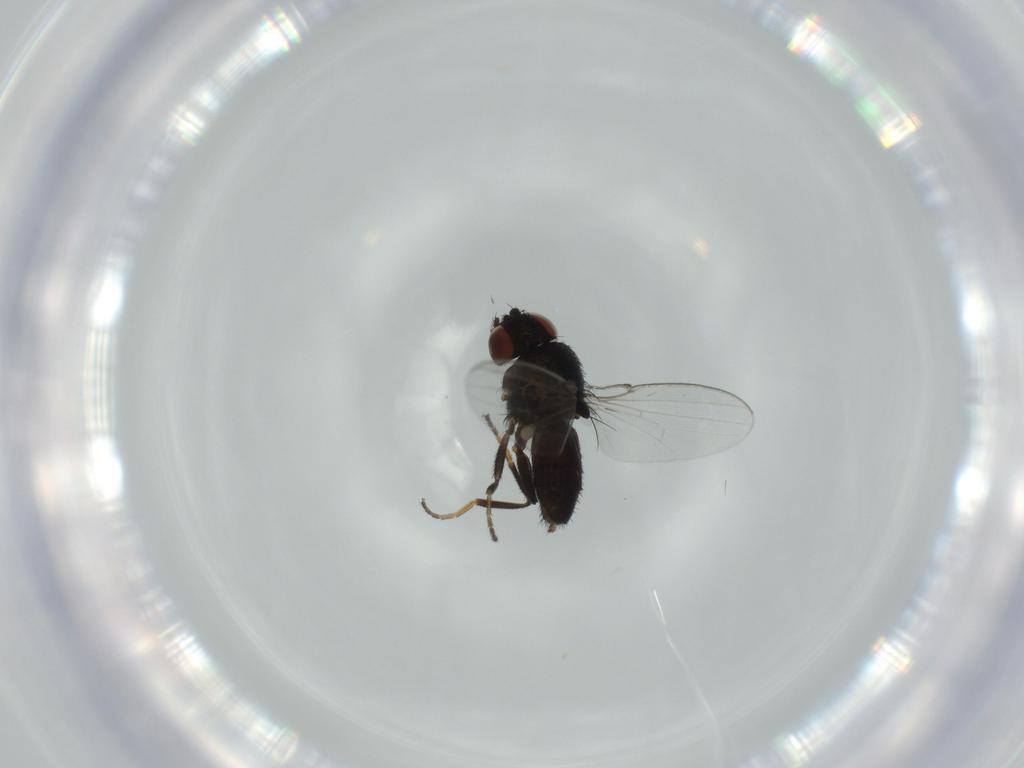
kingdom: Animalia
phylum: Arthropoda
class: Insecta
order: Diptera
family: Milichiidae
